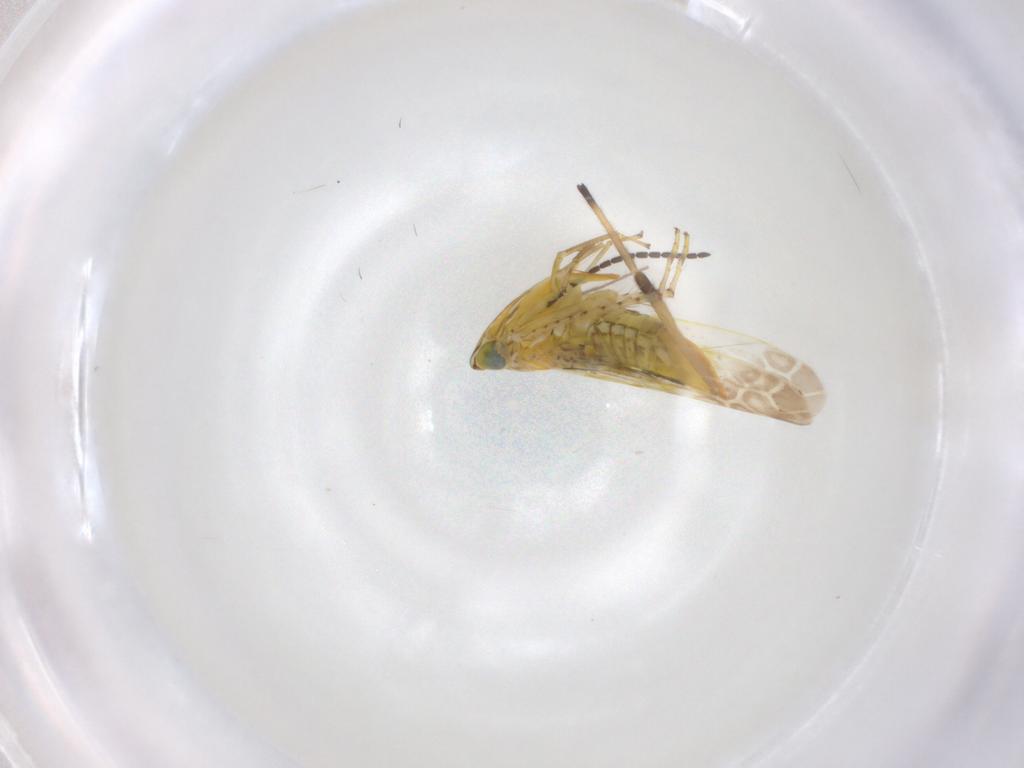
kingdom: Animalia
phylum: Arthropoda
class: Insecta
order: Hemiptera
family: Cicadellidae
